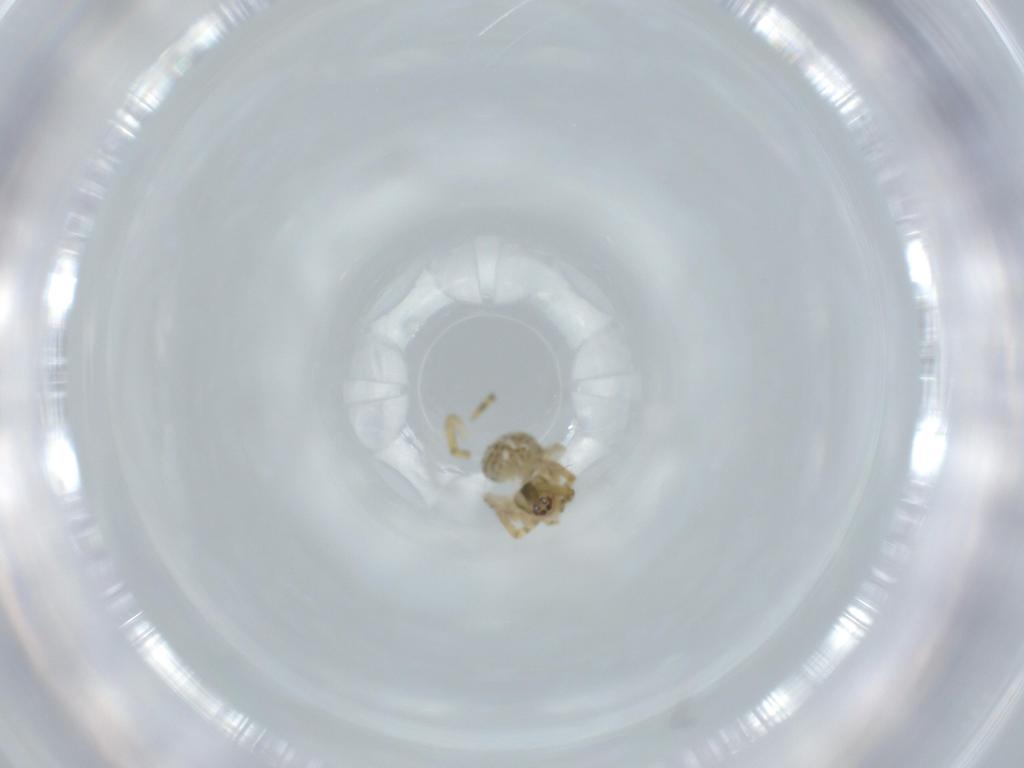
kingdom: Animalia
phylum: Arthropoda
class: Arachnida
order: Araneae
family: Theridiidae
